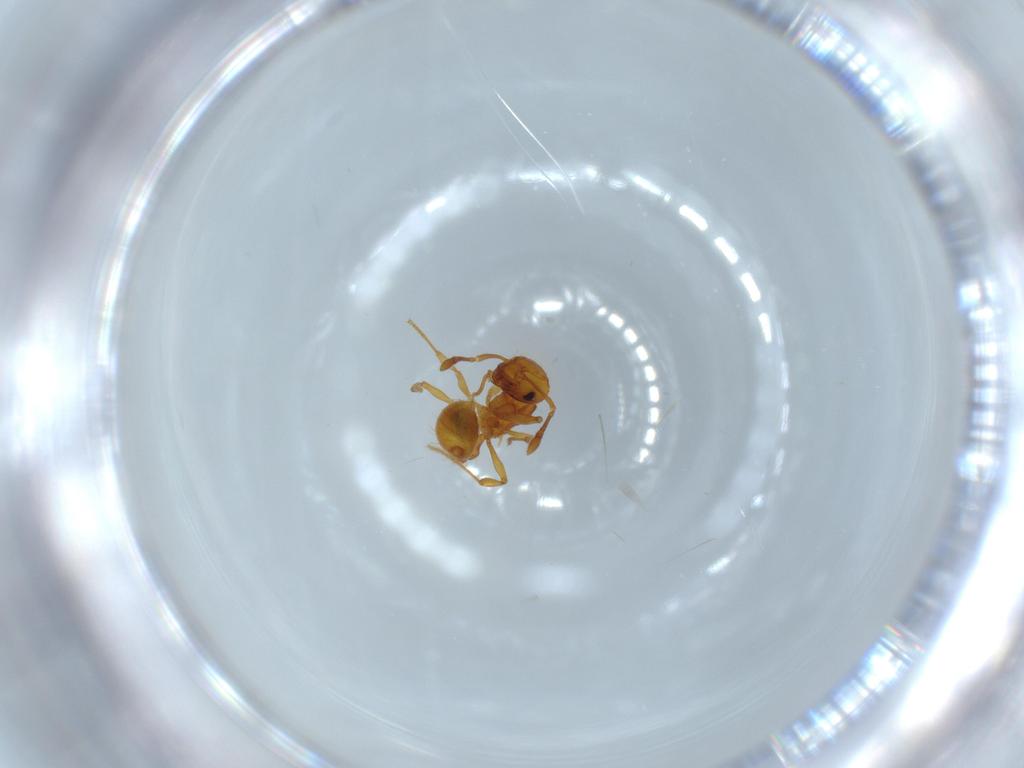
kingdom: Animalia
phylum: Arthropoda
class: Insecta
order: Hymenoptera
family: Formicidae
